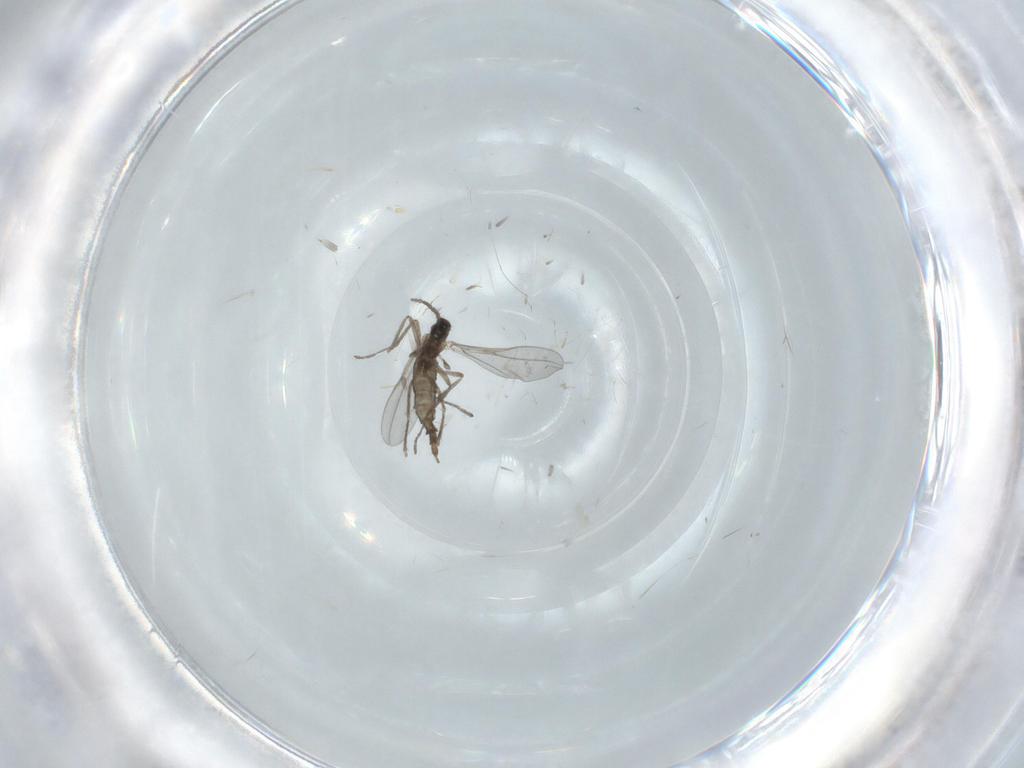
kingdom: Animalia
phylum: Arthropoda
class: Insecta
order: Diptera
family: Cecidomyiidae
